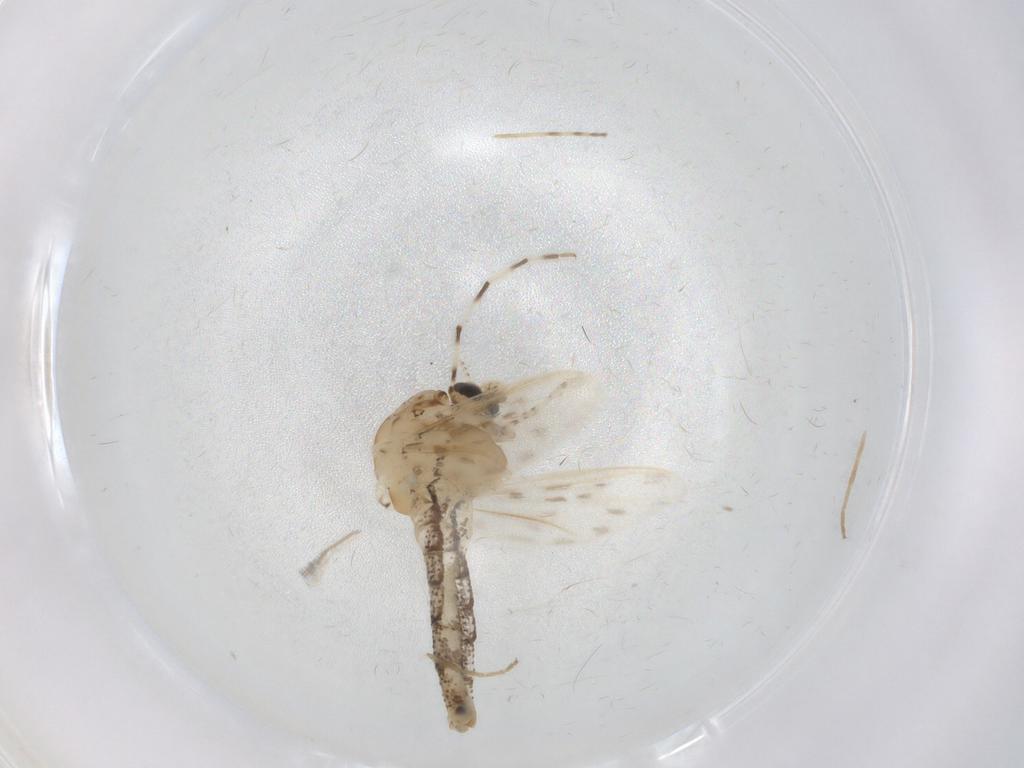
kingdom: Animalia
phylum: Arthropoda
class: Insecta
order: Diptera
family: Chaoboridae
